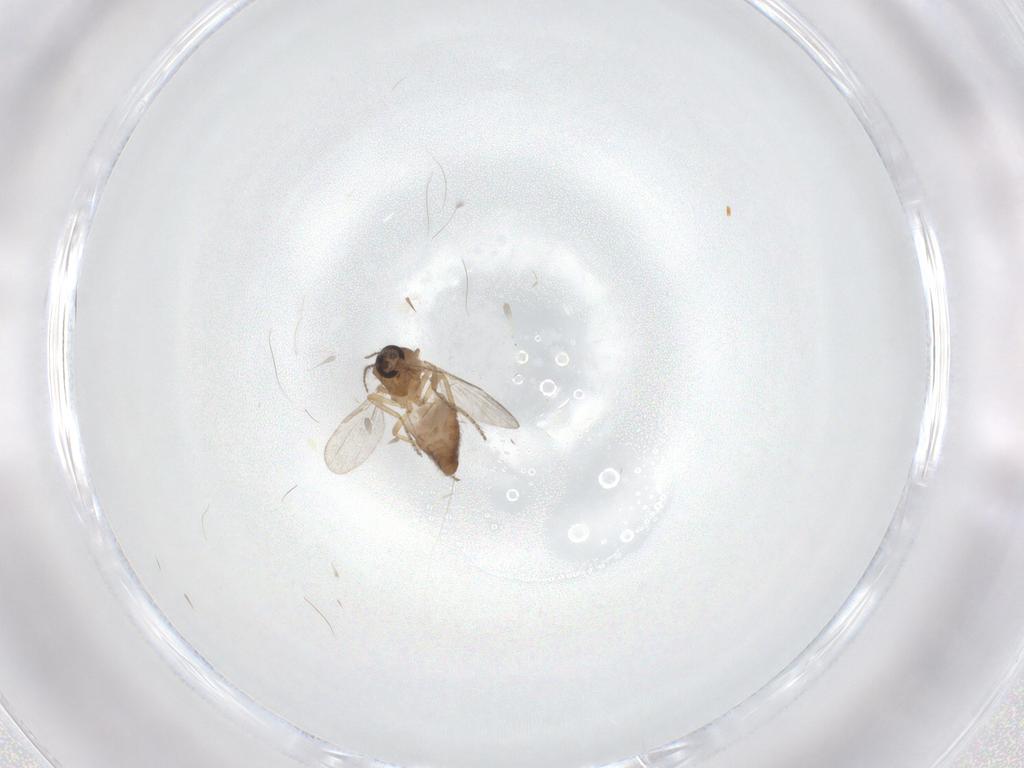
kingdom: Animalia
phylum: Arthropoda
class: Insecta
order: Diptera
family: Ceratopogonidae
